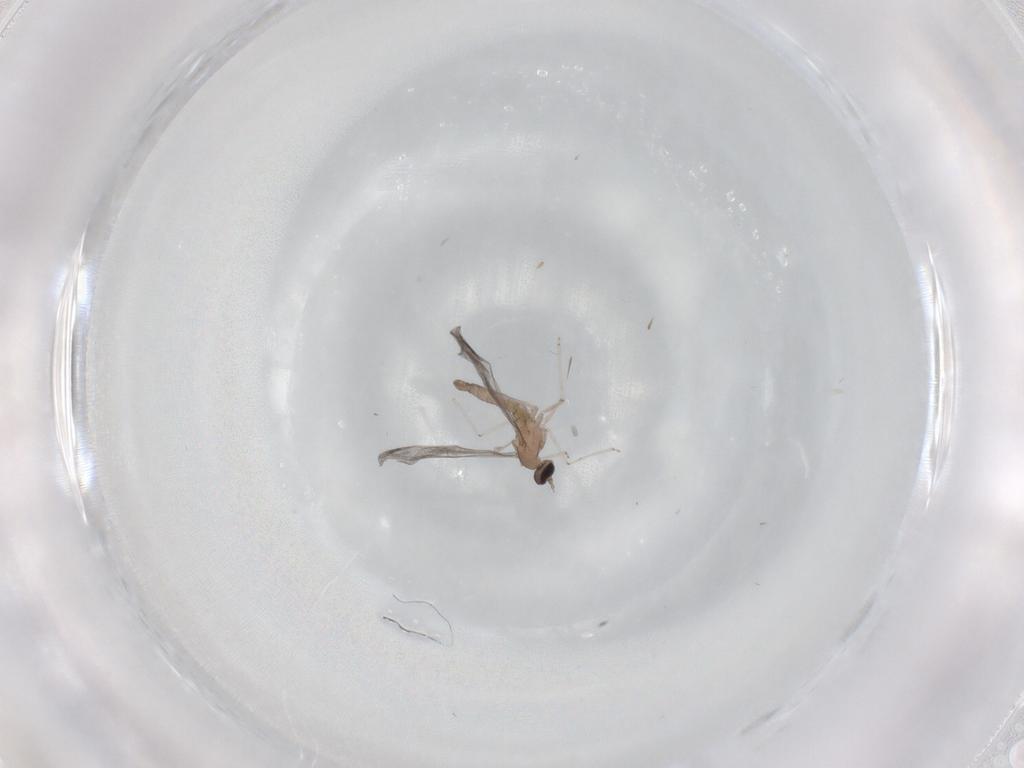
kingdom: Animalia
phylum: Arthropoda
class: Insecta
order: Diptera
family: Cecidomyiidae
